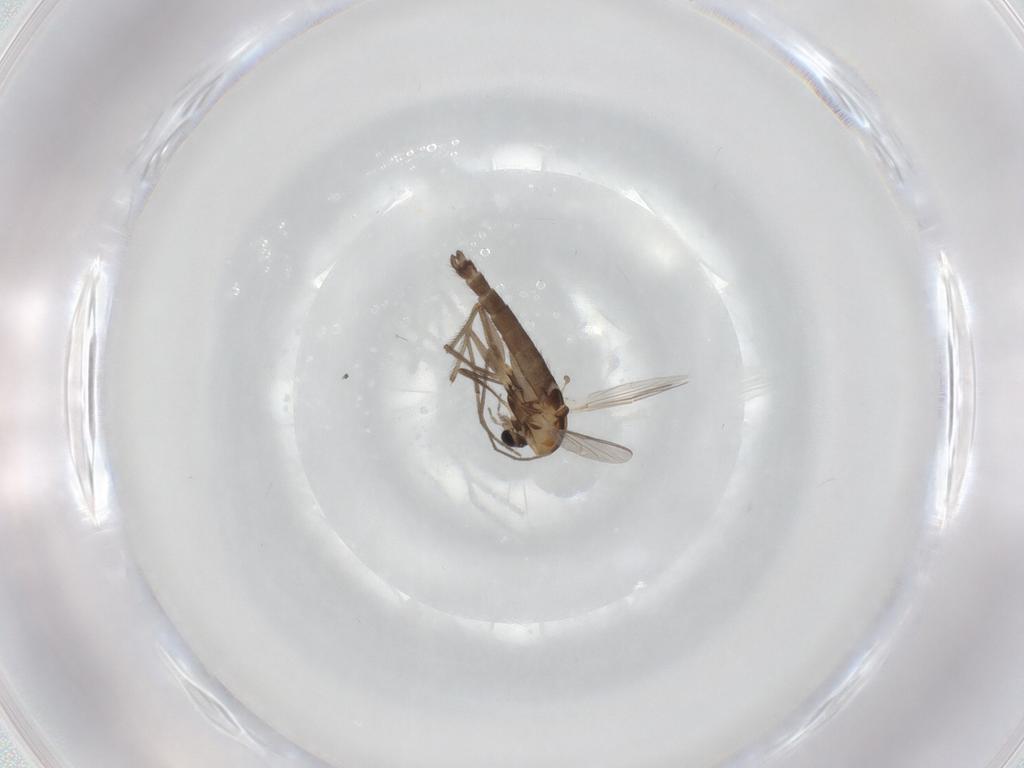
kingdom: Animalia
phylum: Arthropoda
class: Insecta
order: Diptera
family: Chironomidae
